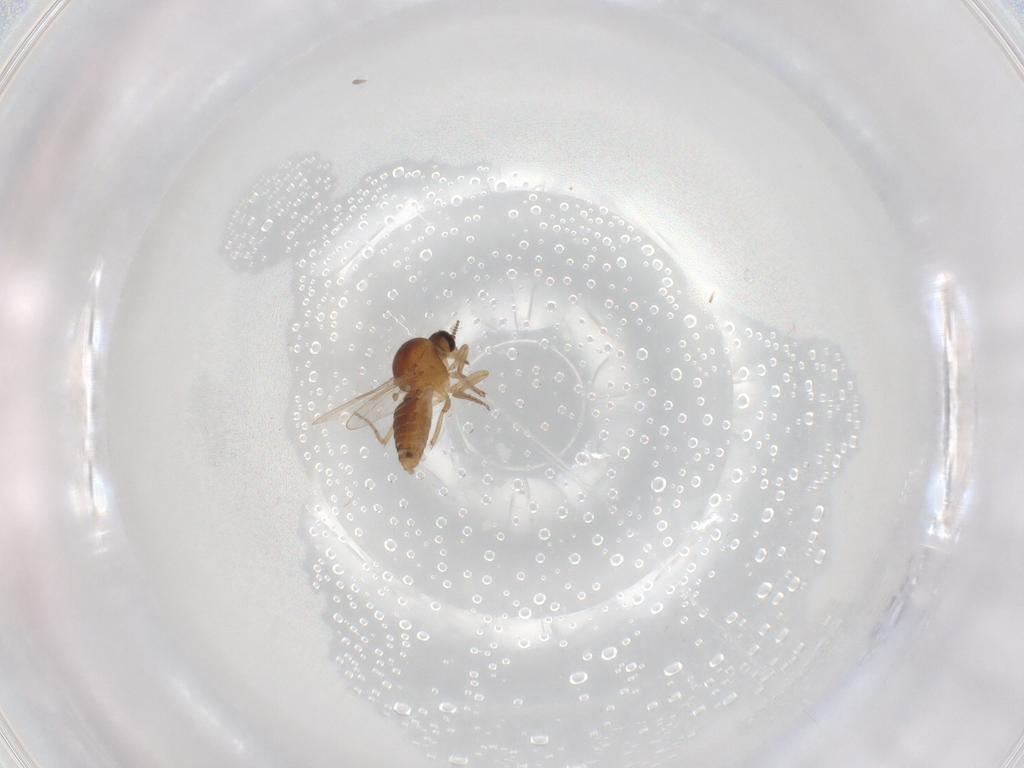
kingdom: Animalia
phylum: Arthropoda
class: Insecta
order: Diptera
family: Ceratopogonidae
